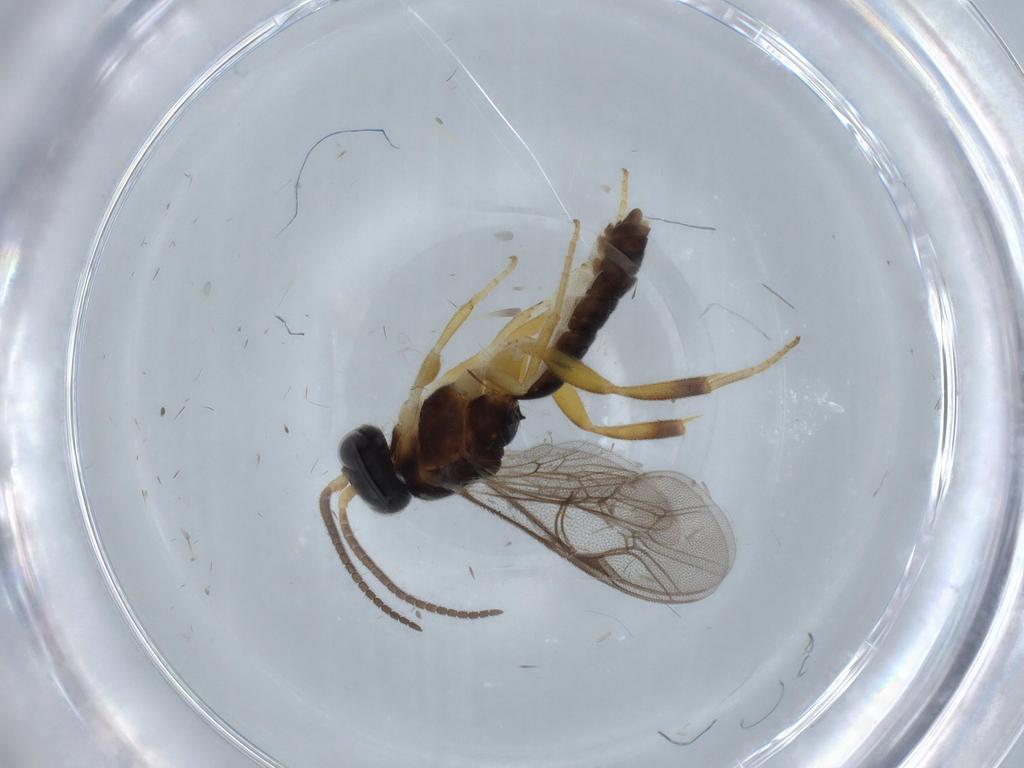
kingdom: Animalia
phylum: Arthropoda
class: Insecta
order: Hymenoptera
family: Ichneumonidae
